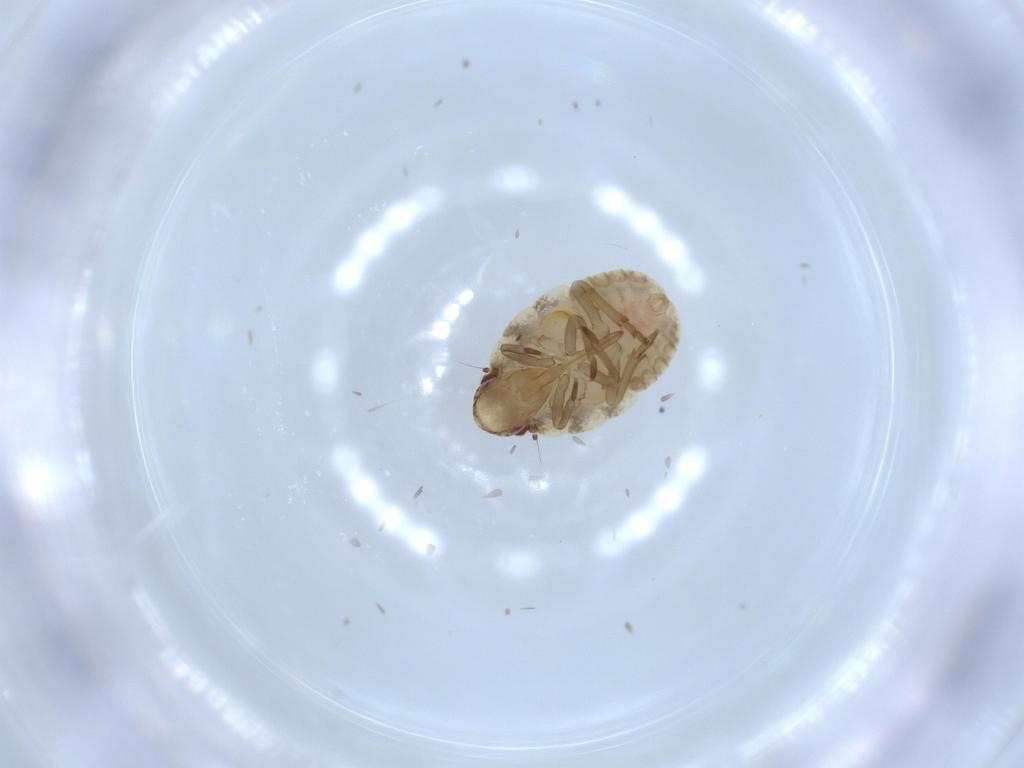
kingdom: Animalia
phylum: Arthropoda
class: Insecta
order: Hemiptera
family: Flatidae
